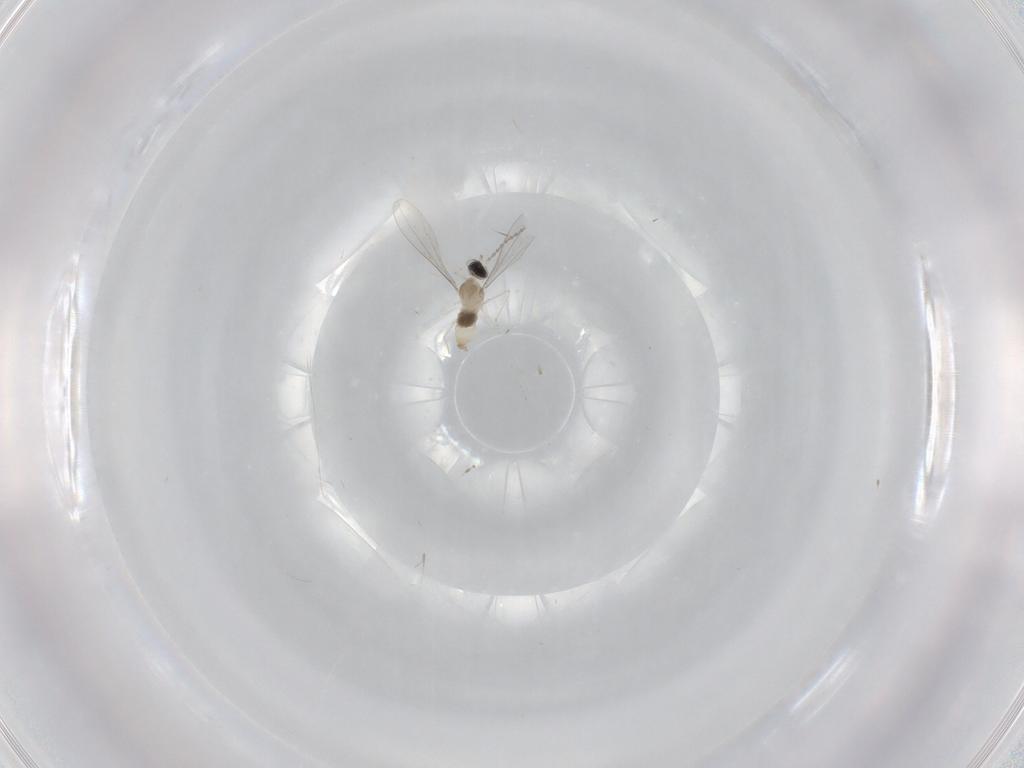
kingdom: Animalia
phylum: Arthropoda
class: Insecta
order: Diptera
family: Cecidomyiidae
